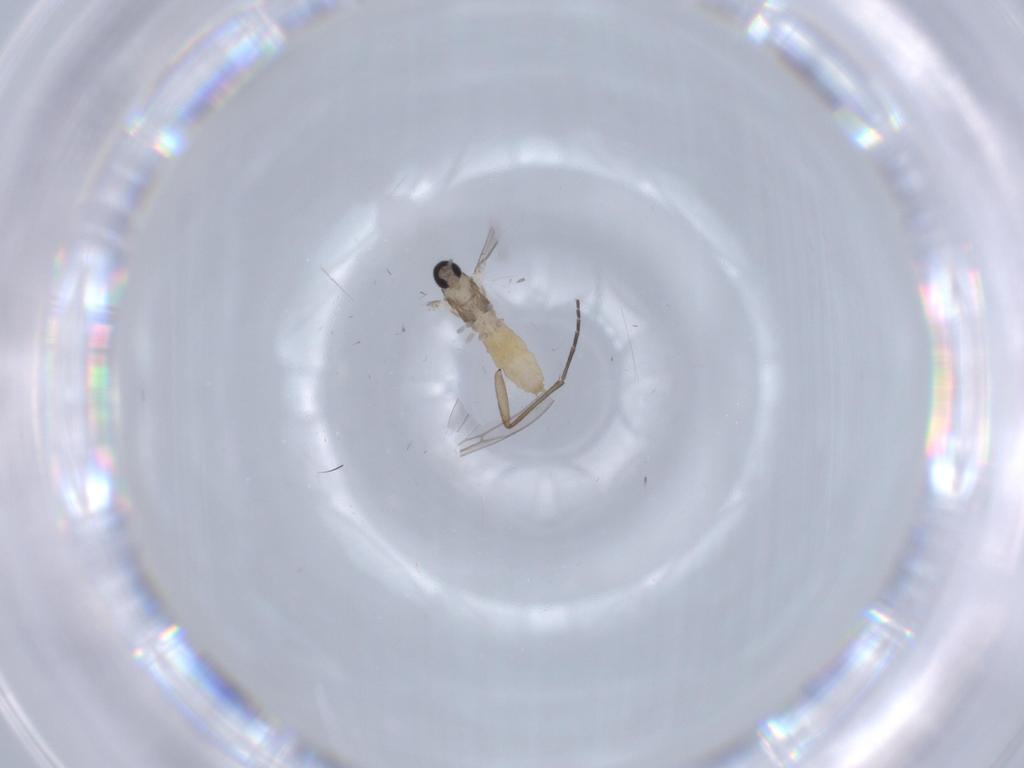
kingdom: Animalia
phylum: Arthropoda
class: Insecta
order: Diptera
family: Cecidomyiidae
